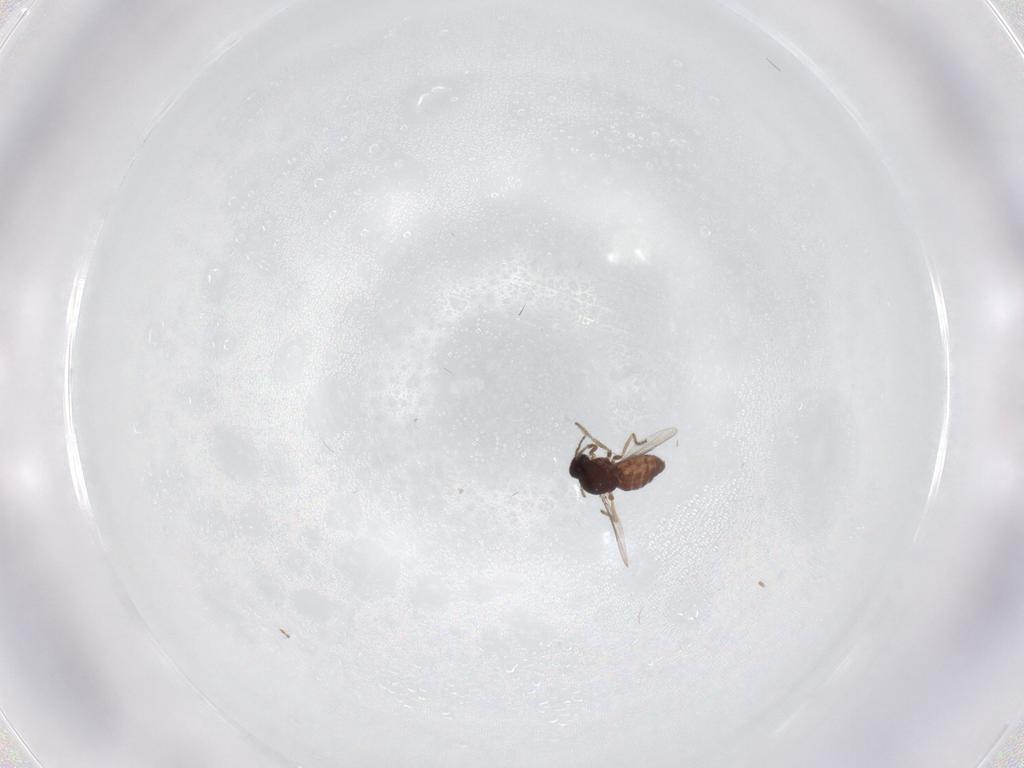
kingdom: Animalia
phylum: Arthropoda
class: Insecta
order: Diptera
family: Ceratopogonidae
